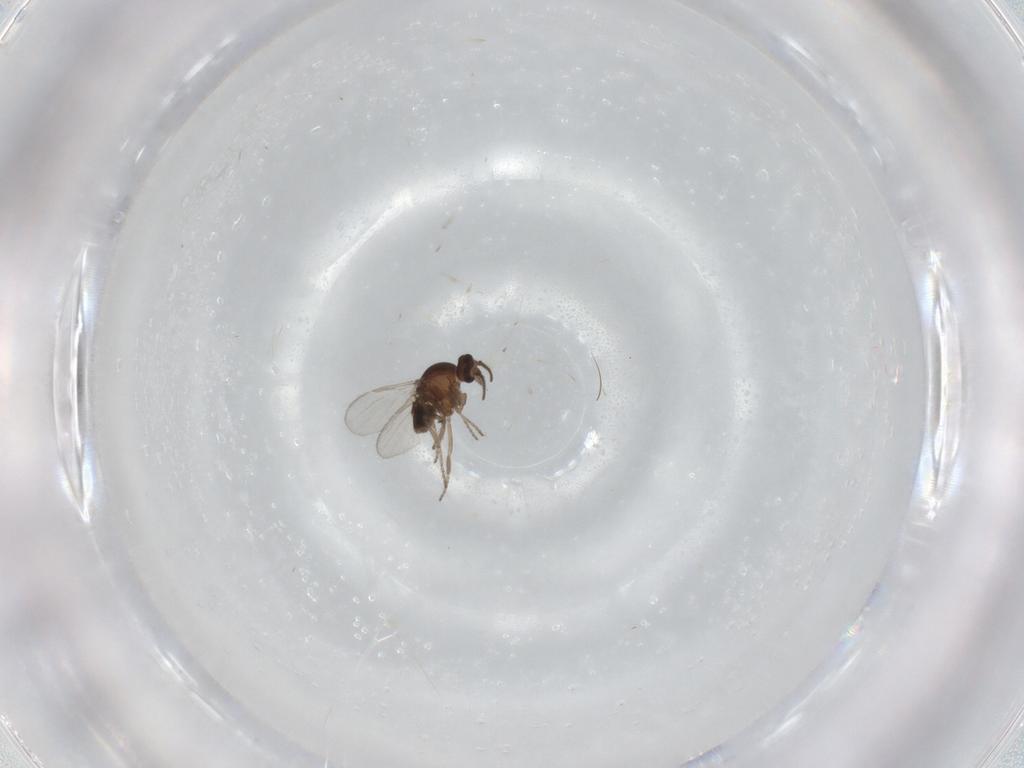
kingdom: Animalia
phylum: Arthropoda
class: Insecta
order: Diptera
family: Ceratopogonidae
